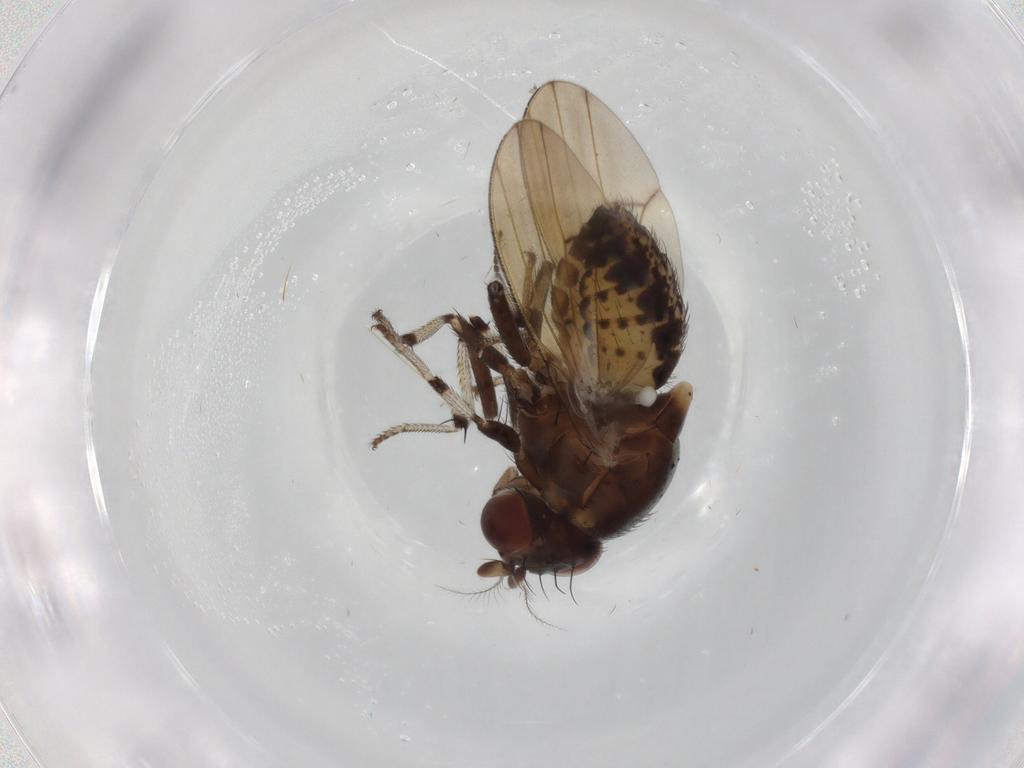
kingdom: Animalia
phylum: Arthropoda
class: Insecta
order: Diptera
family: Lauxaniidae
